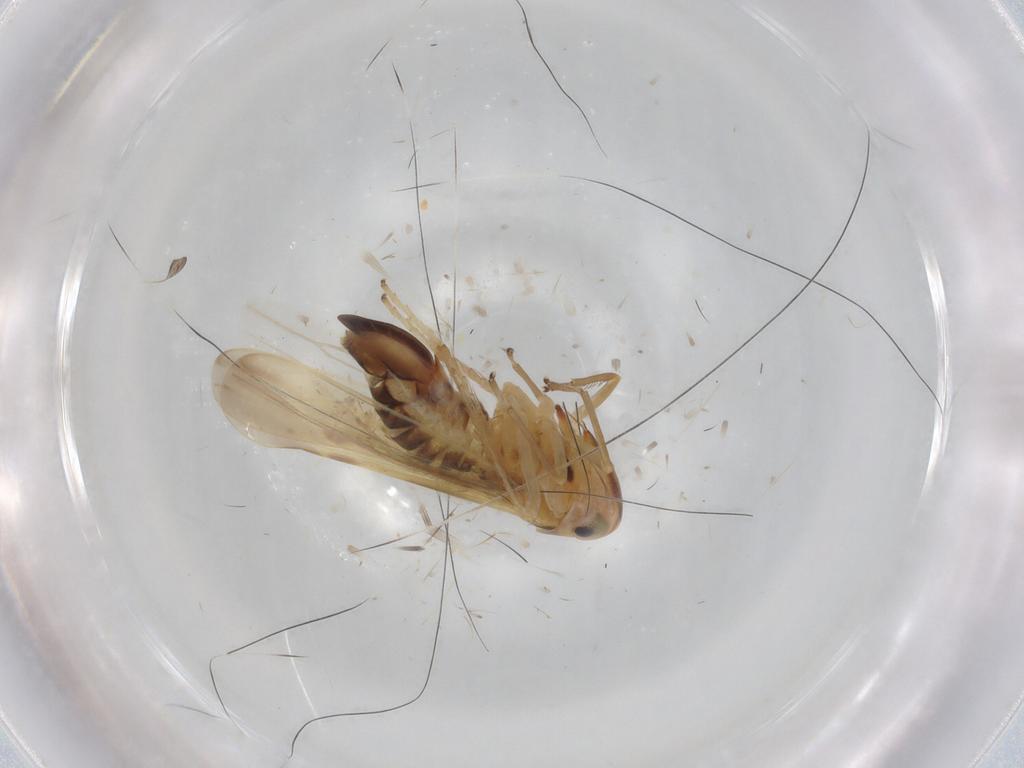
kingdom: Animalia
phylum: Arthropoda
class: Insecta
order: Hemiptera
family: Cicadellidae
